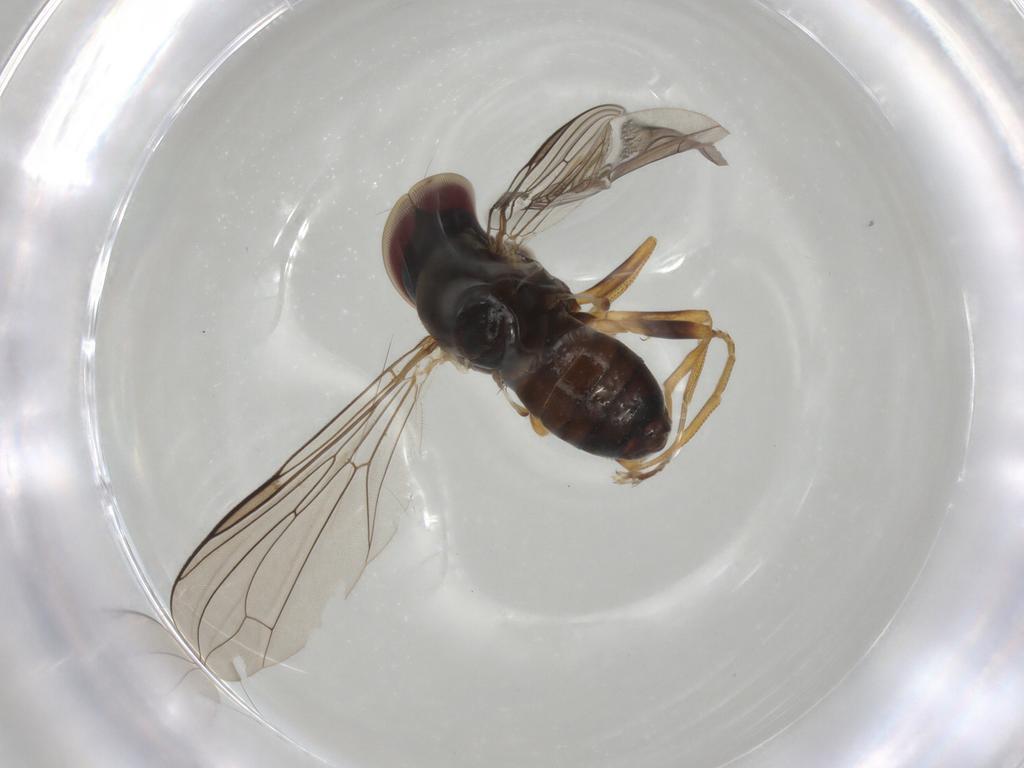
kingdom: Animalia
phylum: Arthropoda
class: Insecta
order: Diptera
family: Pipunculidae
